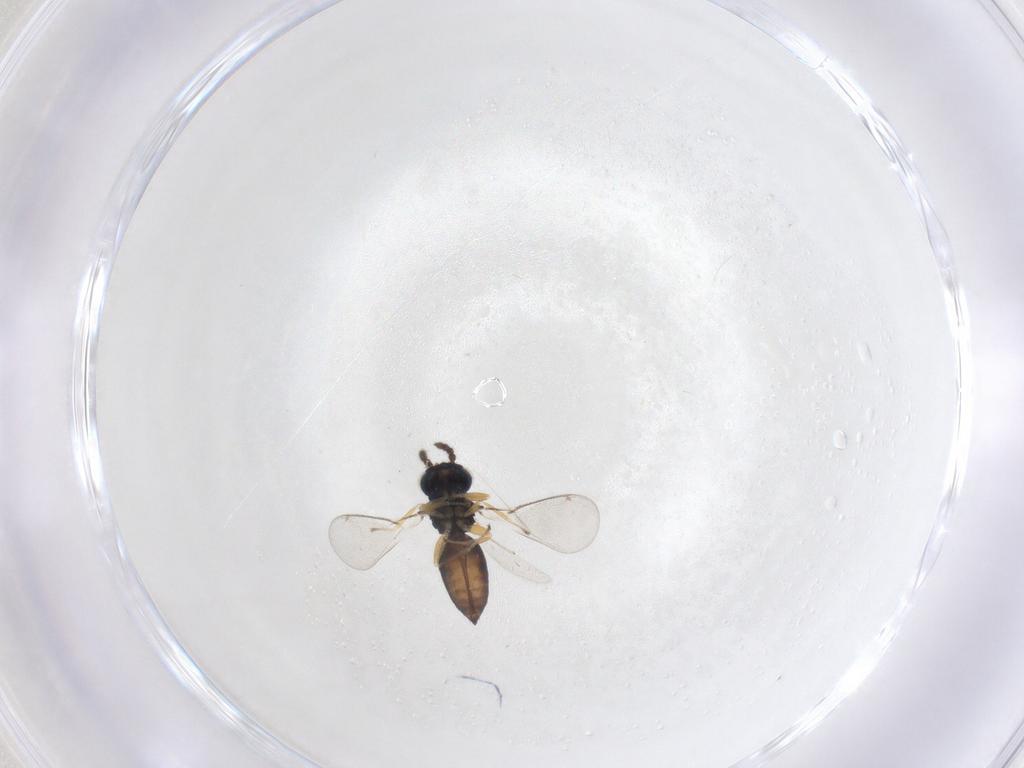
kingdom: Animalia
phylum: Arthropoda
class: Insecta
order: Hymenoptera
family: Eulophidae
